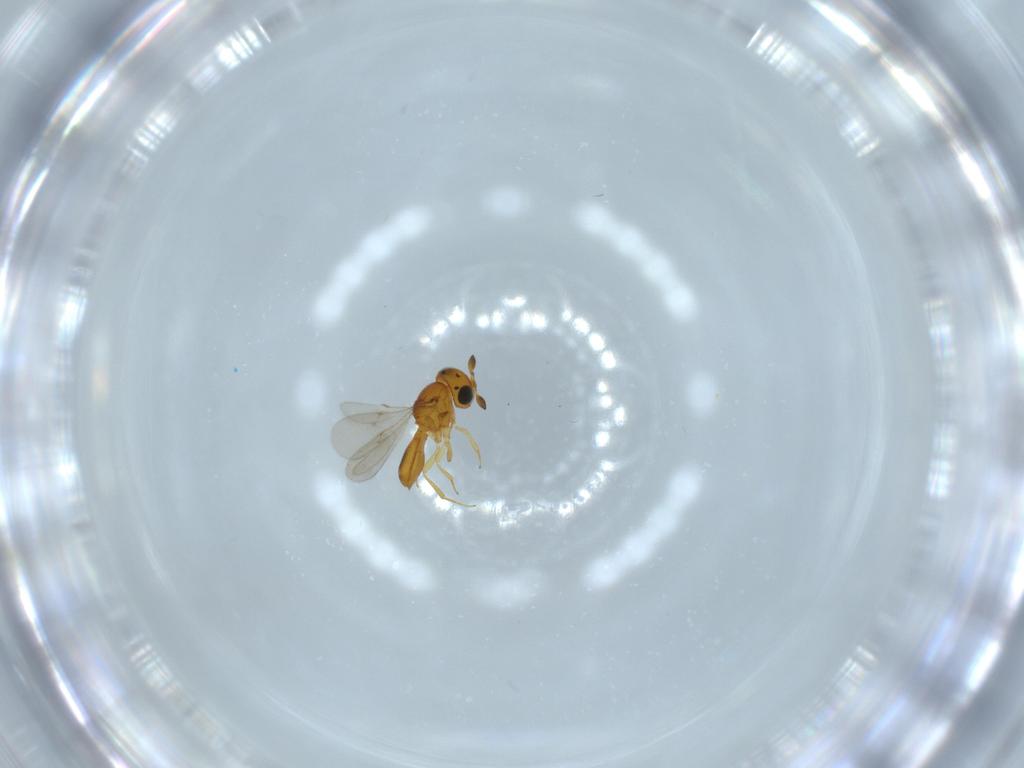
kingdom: Animalia
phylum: Arthropoda
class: Insecta
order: Hymenoptera
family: Scelionidae
